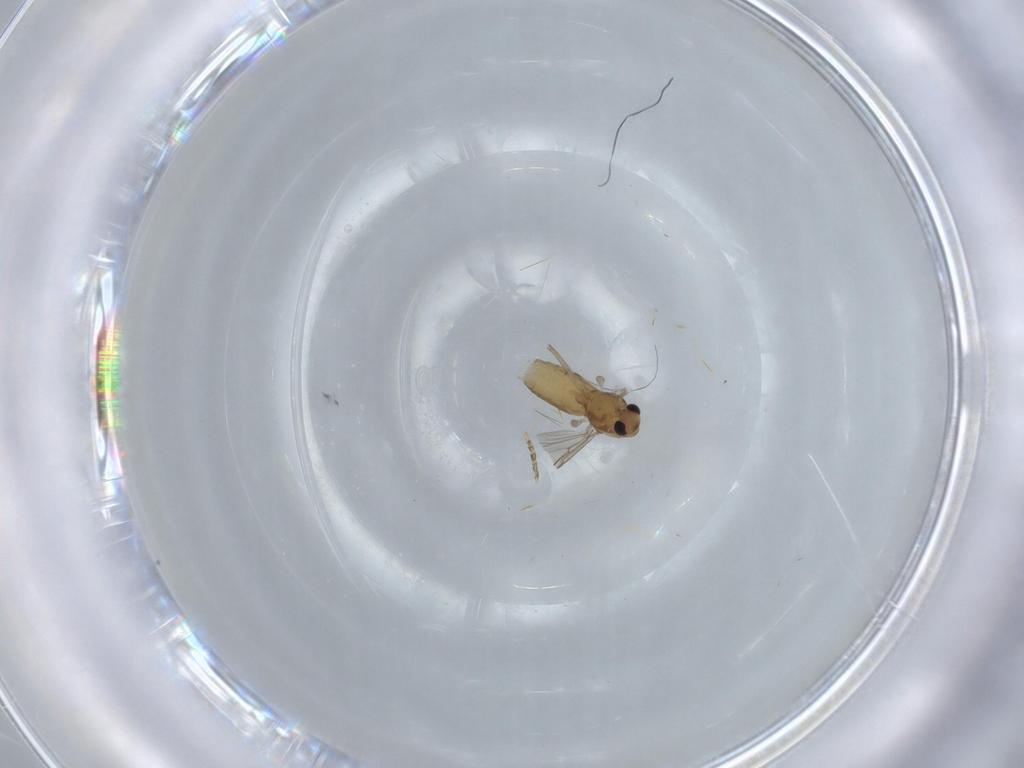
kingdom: Animalia
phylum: Arthropoda
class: Insecta
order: Diptera
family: Chironomidae
